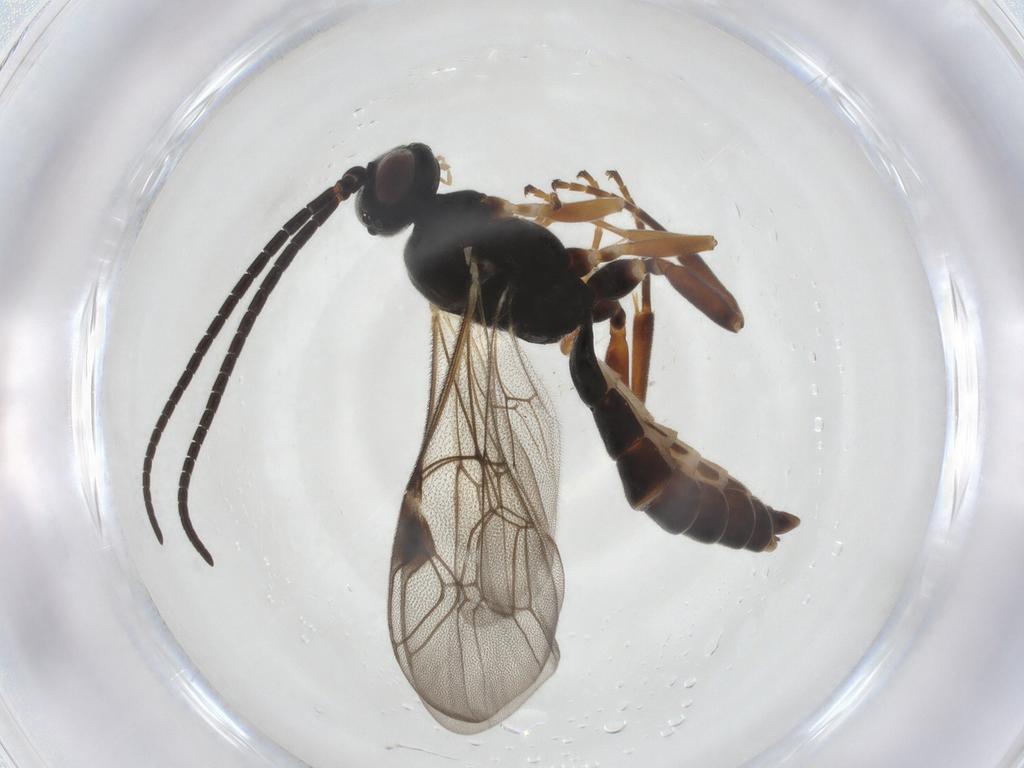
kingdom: Animalia
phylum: Arthropoda
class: Insecta
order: Hymenoptera
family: Ichneumonidae
